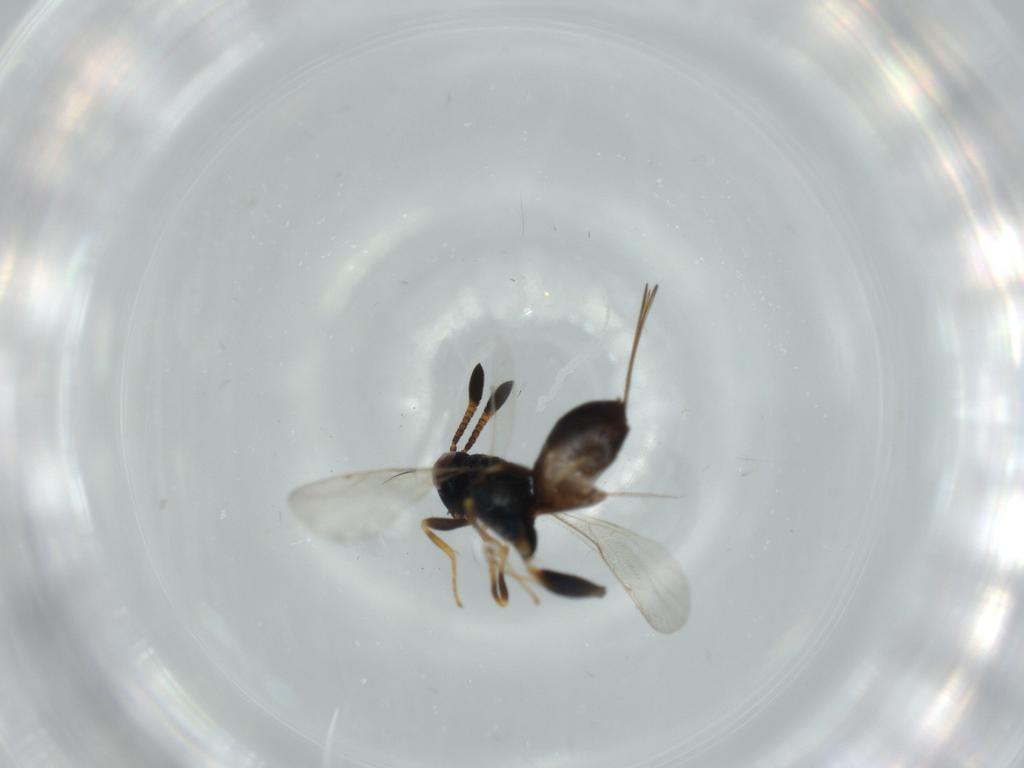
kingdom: Animalia
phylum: Arthropoda
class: Insecta
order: Hymenoptera
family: Torymidae
